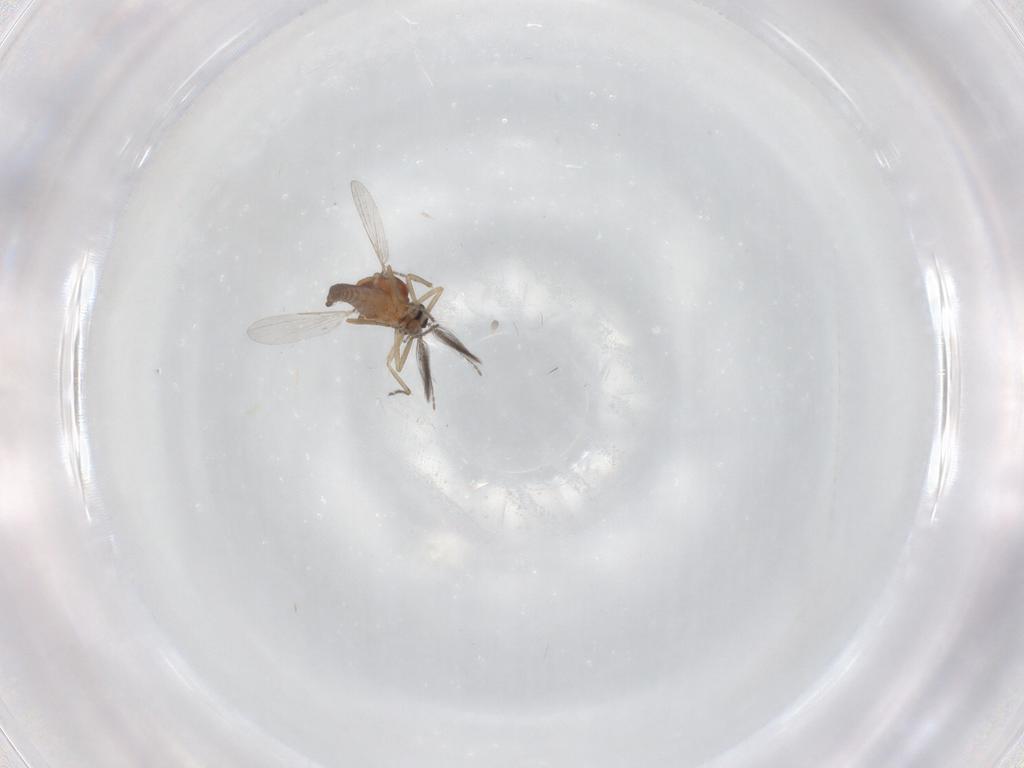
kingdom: Animalia
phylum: Arthropoda
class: Insecta
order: Diptera
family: Ceratopogonidae
